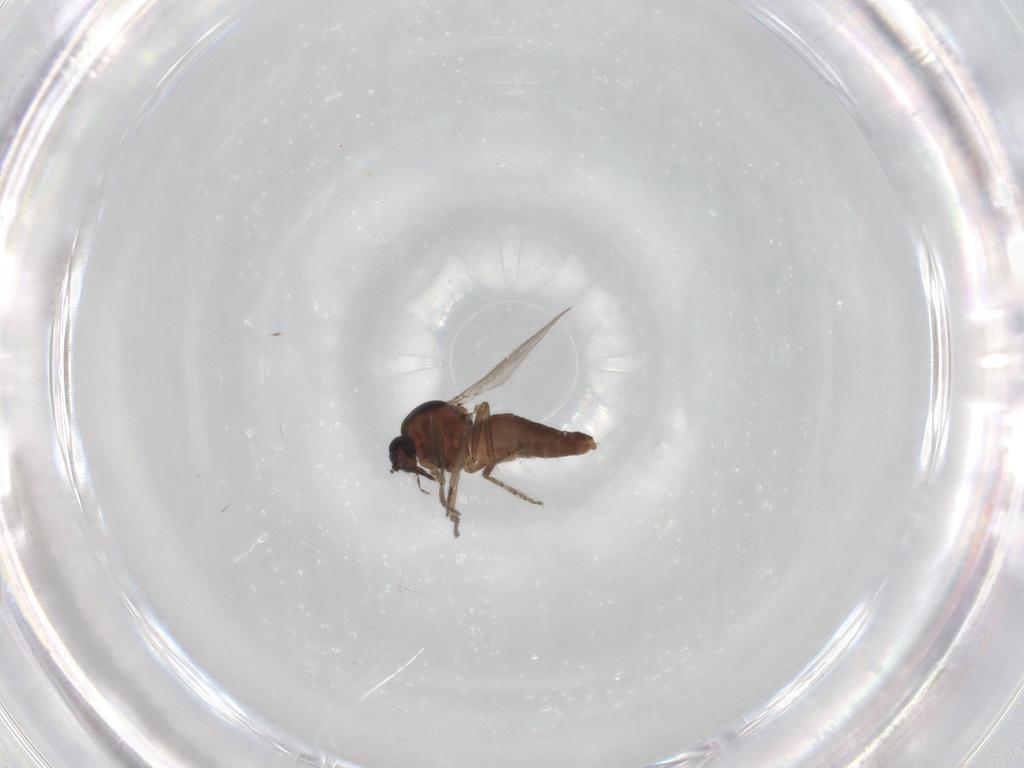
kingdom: Animalia
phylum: Arthropoda
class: Insecta
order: Diptera
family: Ceratopogonidae
